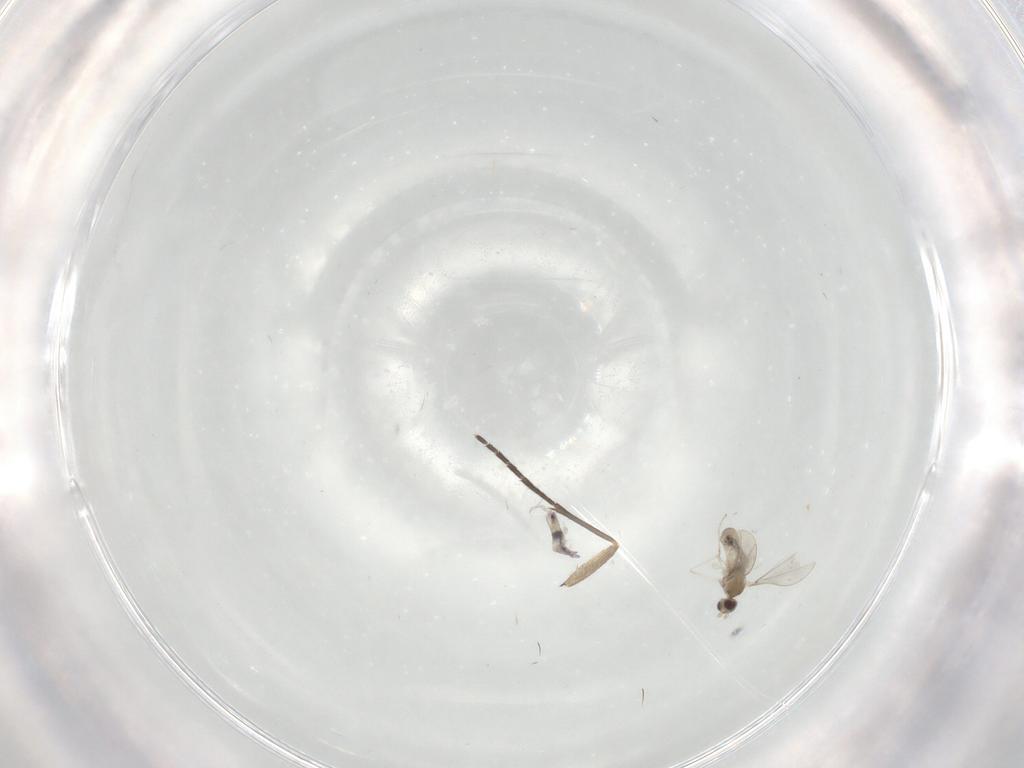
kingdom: Animalia
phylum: Arthropoda
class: Insecta
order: Diptera
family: Cecidomyiidae
